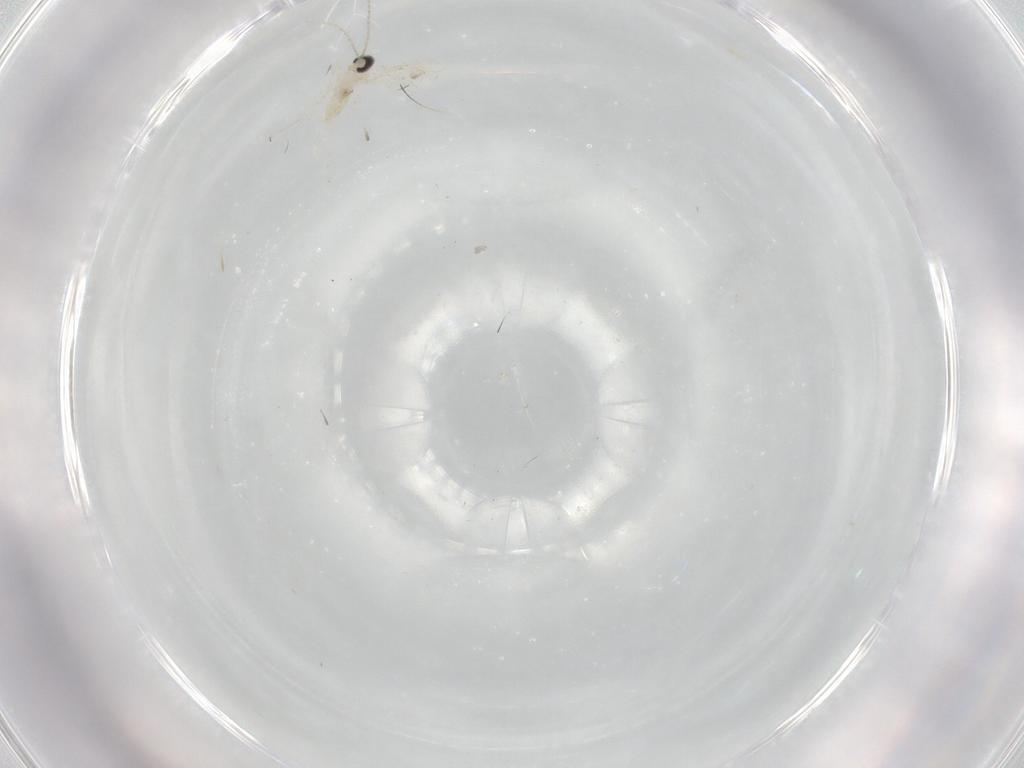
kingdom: Animalia
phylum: Arthropoda
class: Insecta
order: Diptera
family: Cecidomyiidae
